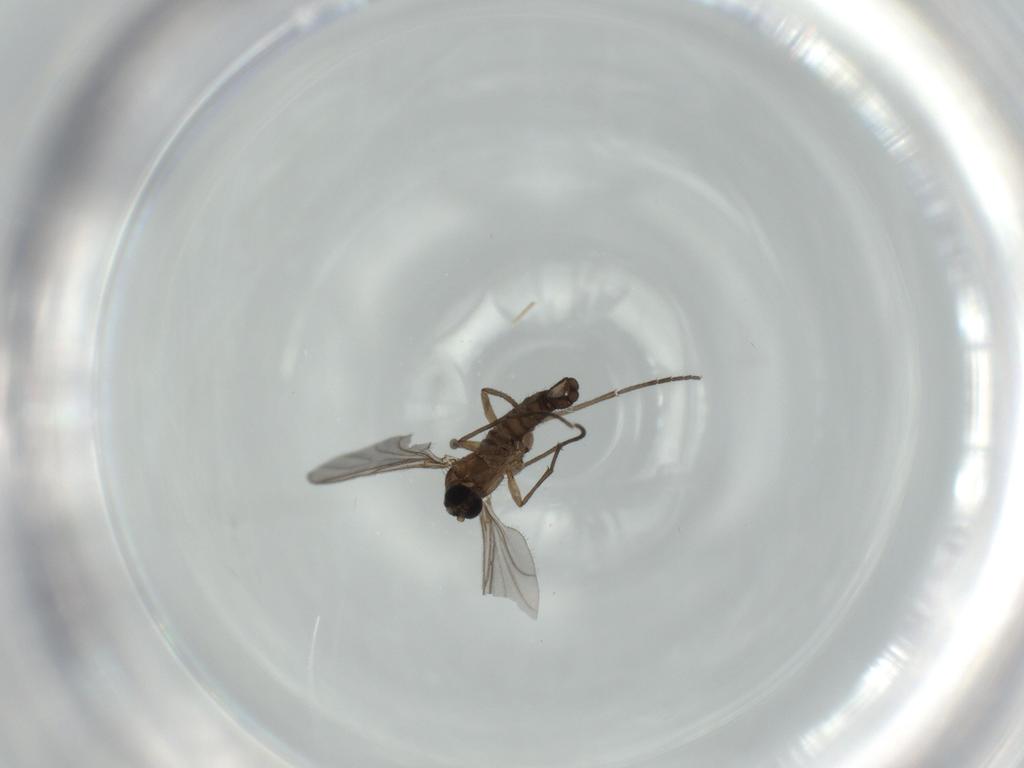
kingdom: Animalia
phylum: Arthropoda
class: Insecta
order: Diptera
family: Sciaridae
